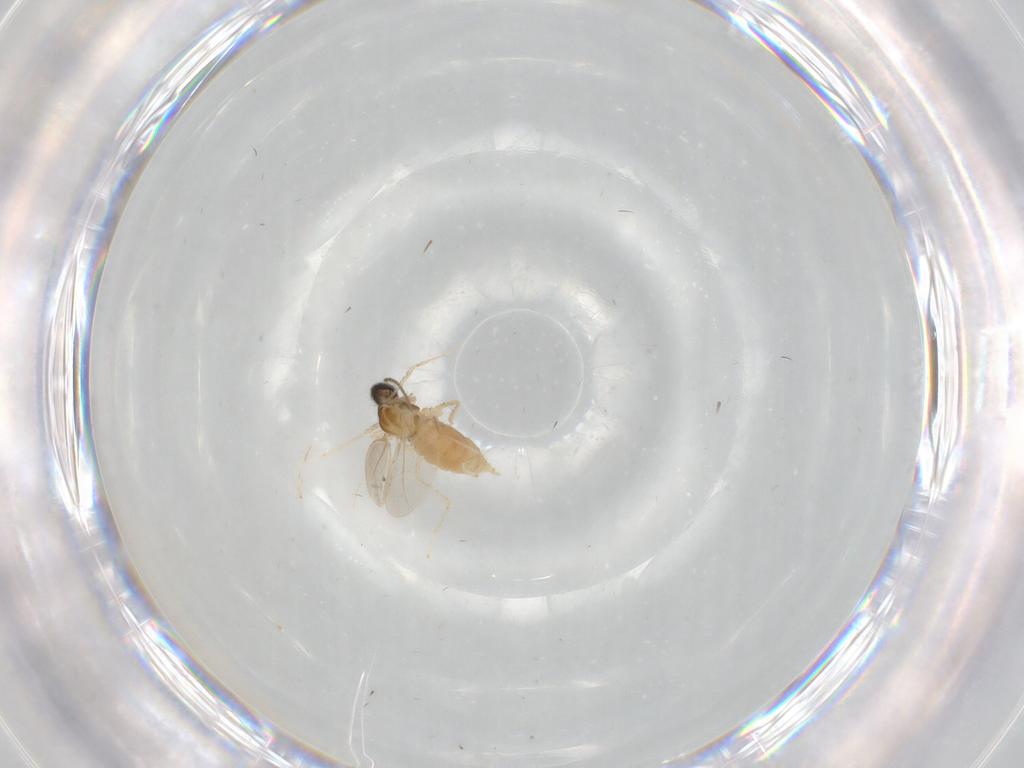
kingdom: Animalia
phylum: Arthropoda
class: Insecta
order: Diptera
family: Cecidomyiidae
